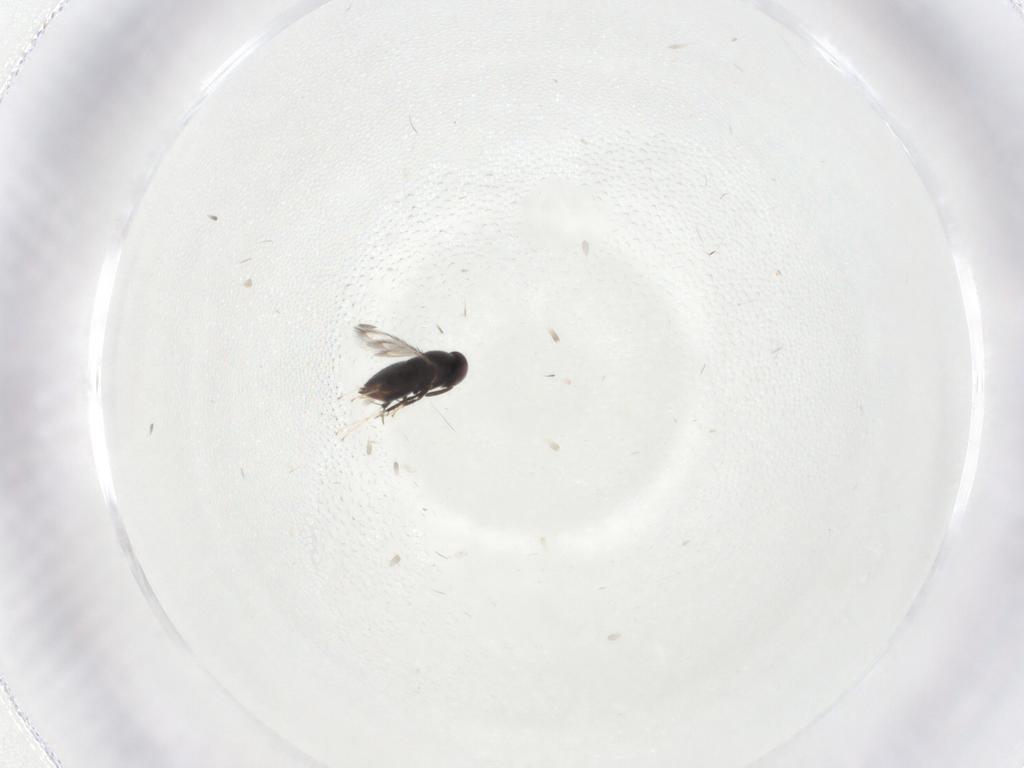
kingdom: Animalia
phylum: Arthropoda
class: Insecta
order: Hymenoptera
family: Signiphoridae
